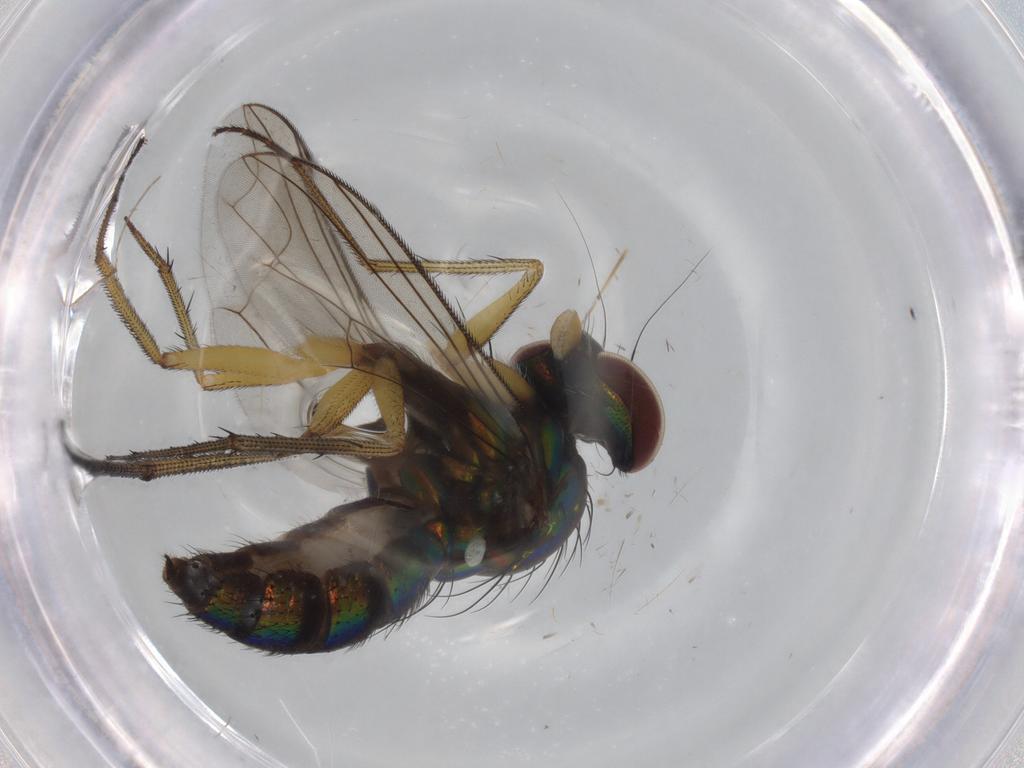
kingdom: Animalia
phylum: Arthropoda
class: Insecta
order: Diptera
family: Dolichopodidae
